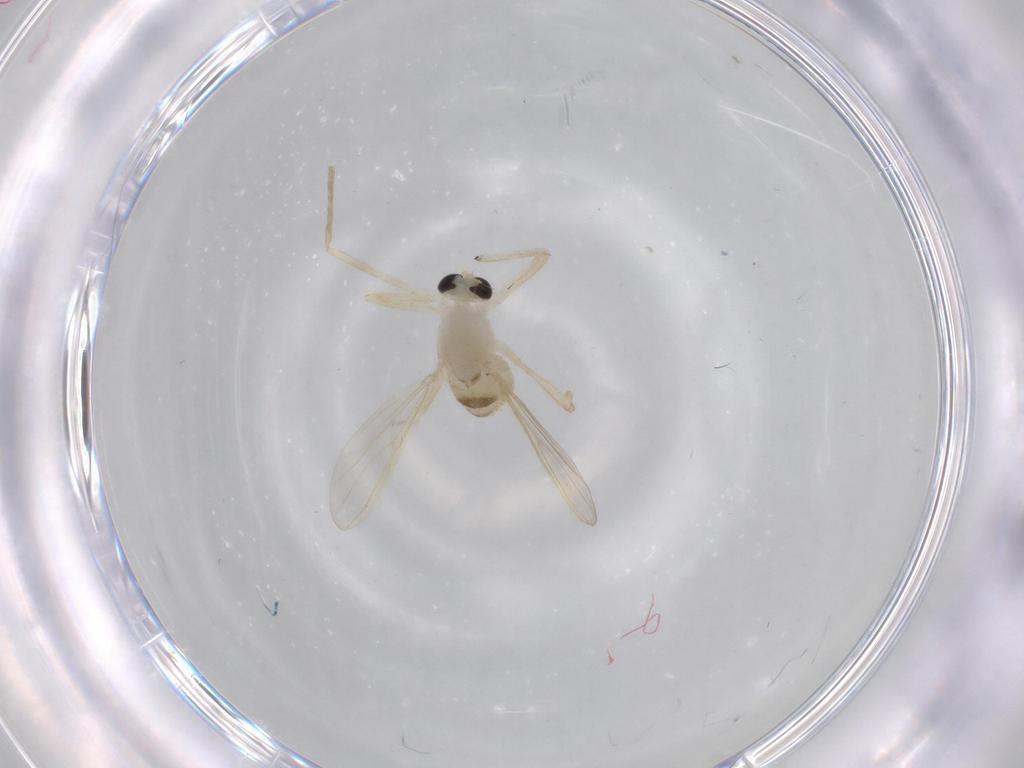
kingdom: Animalia
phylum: Arthropoda
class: Insecta
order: Diptera
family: Chironomidae
